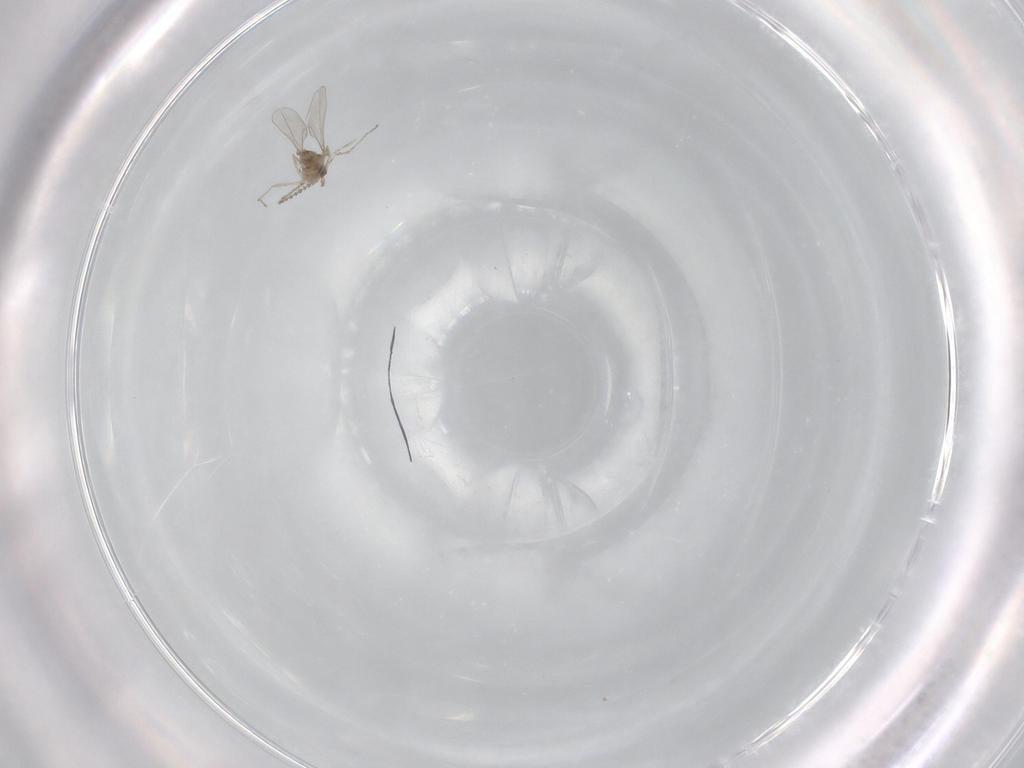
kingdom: Animalia
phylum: Arthropoda
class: Insecta
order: Diptera
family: Cecidomyiidae
